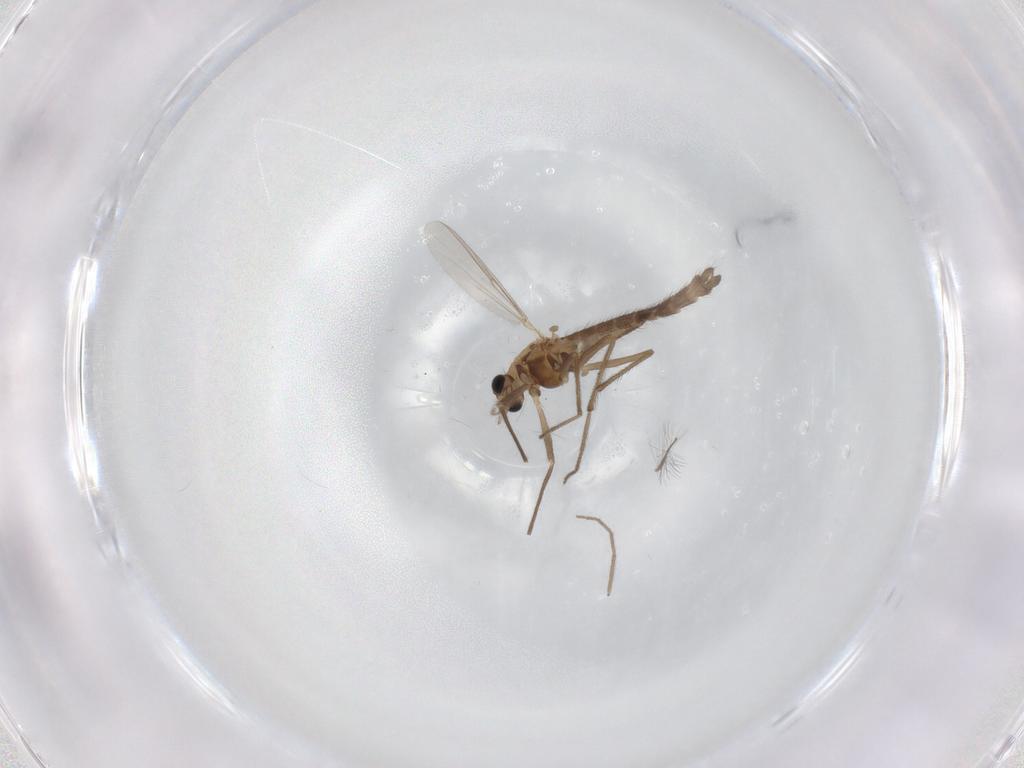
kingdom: Animalia
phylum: Arthropoda
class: Insecta
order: Diptera
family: Chironomidae
